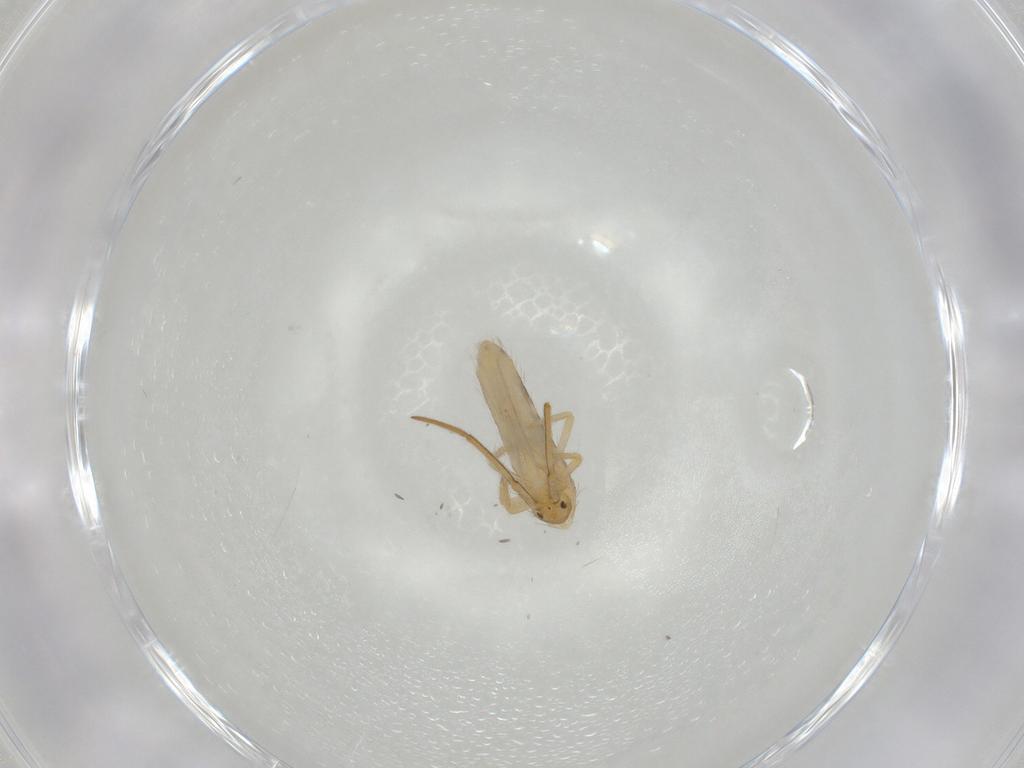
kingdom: Animalia
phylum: Arthropoda
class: Collembola
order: Entomobryomorpha
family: Entomobryidae
